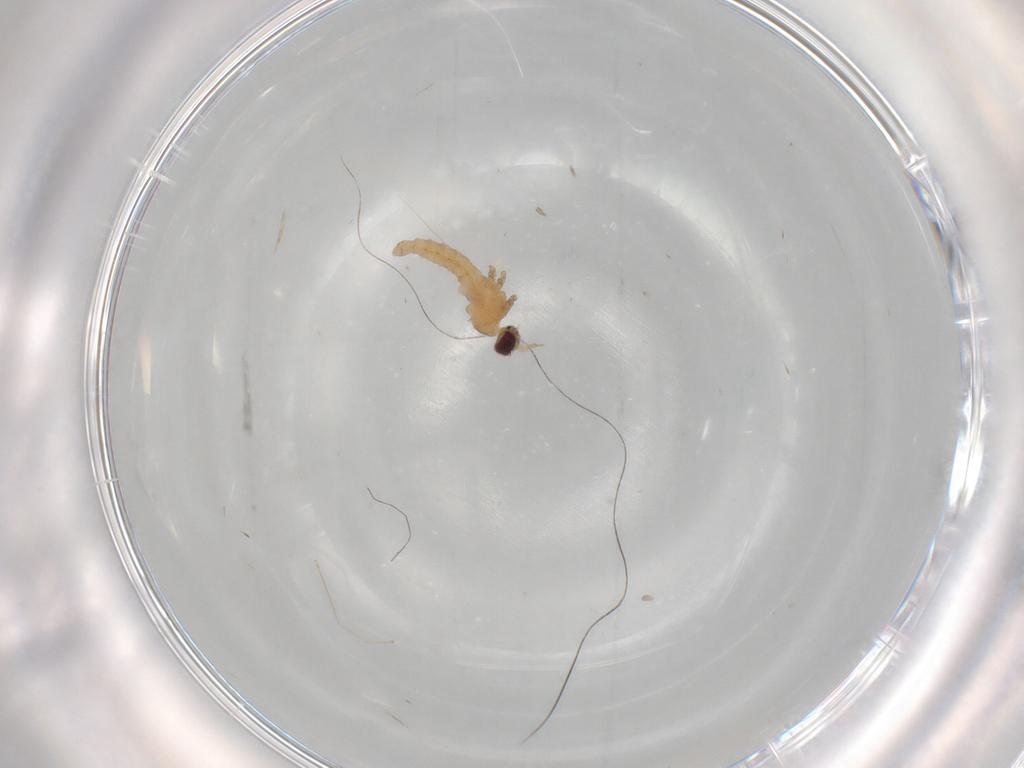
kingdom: Animalia
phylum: Arthropoda
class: Insecta
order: Diptera
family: Cecidomyiidae
